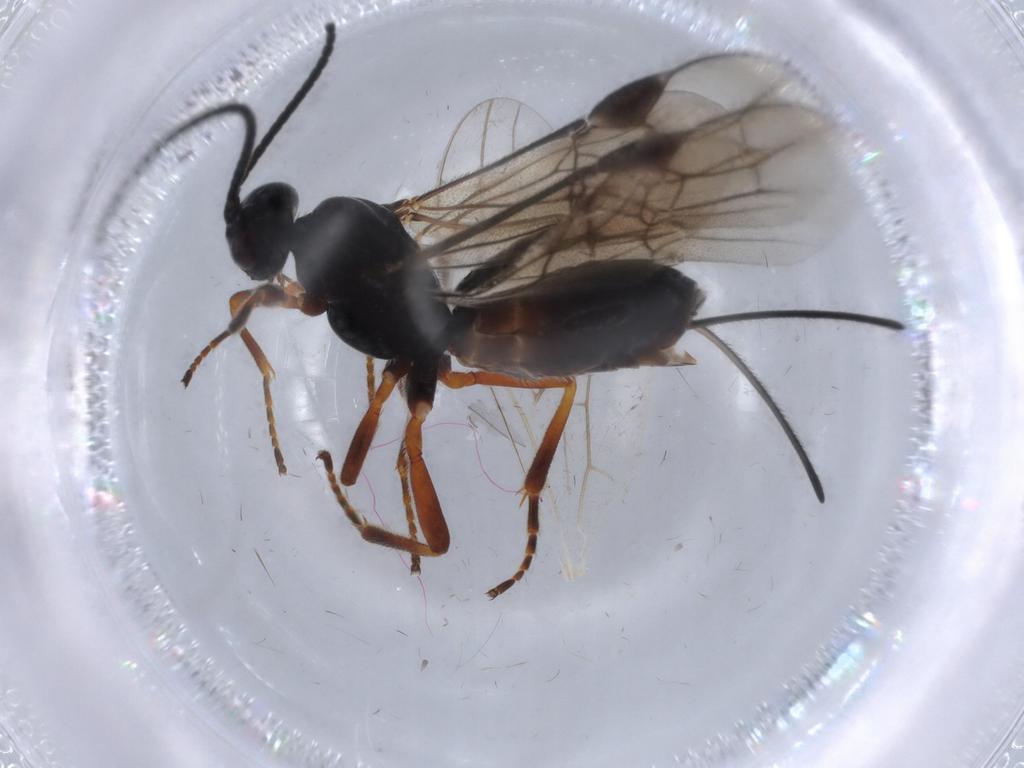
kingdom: Animalia
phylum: Arthropoda
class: Insecta
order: Hymenoptera
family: Braconidae
